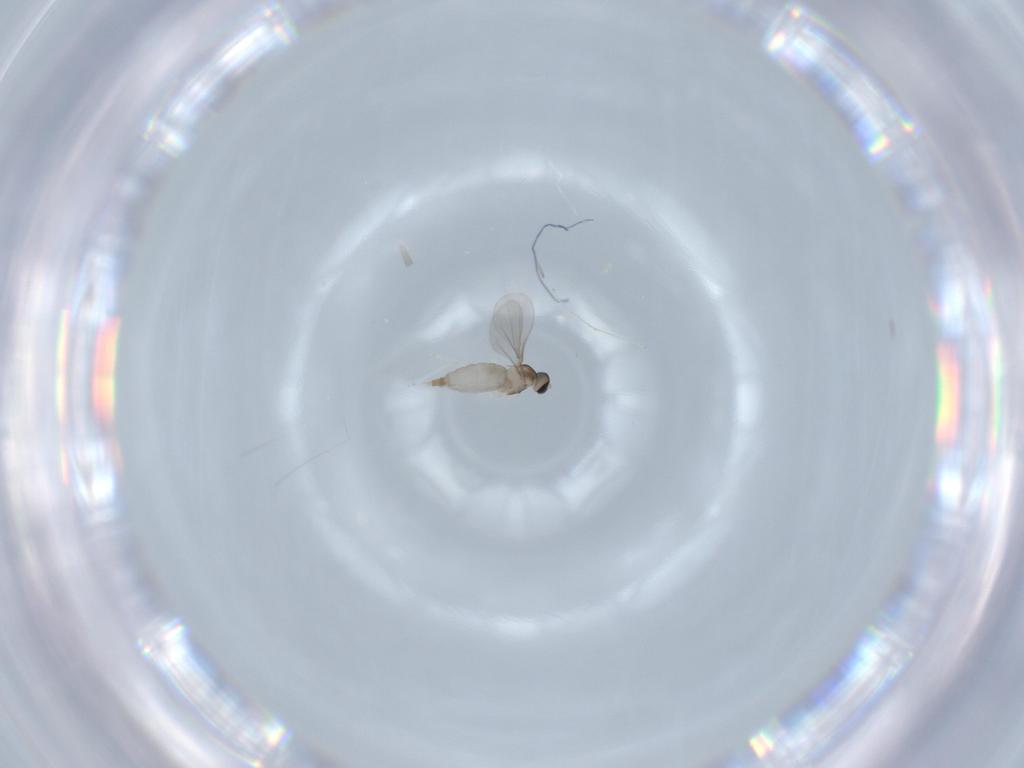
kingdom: Animalia
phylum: Arthropoda
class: Insecta
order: Diptera
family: Cecidomyiidae
